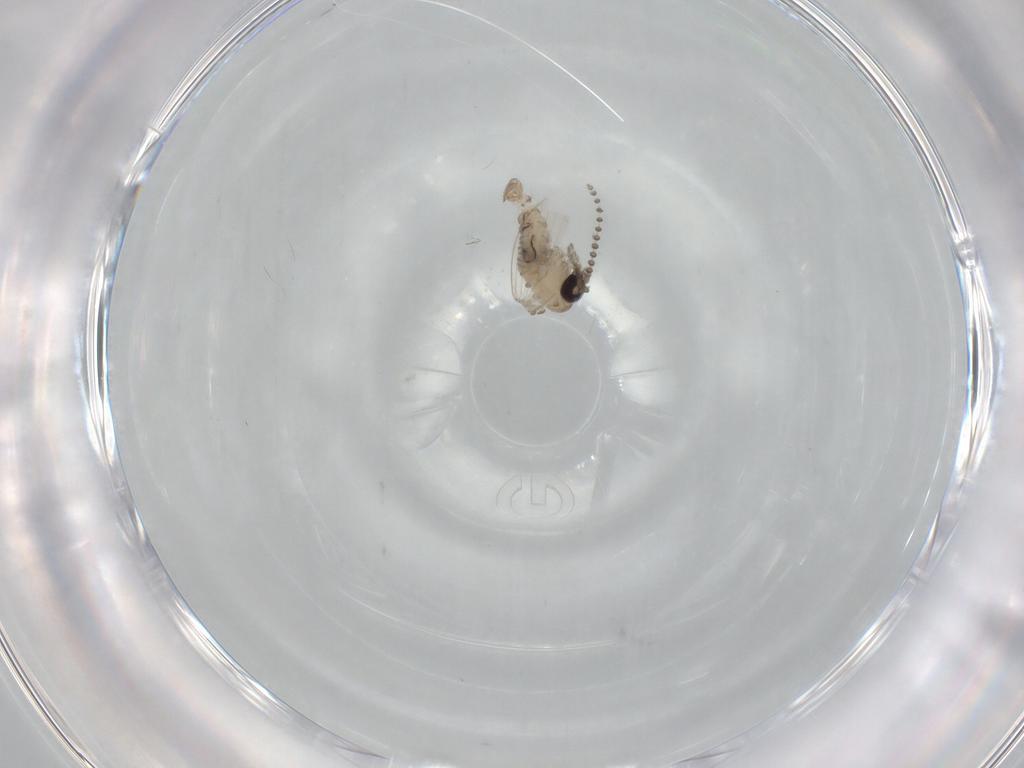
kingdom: Animalia
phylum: Arthropoda
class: Insecta
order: Diptera
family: Psychodidae
